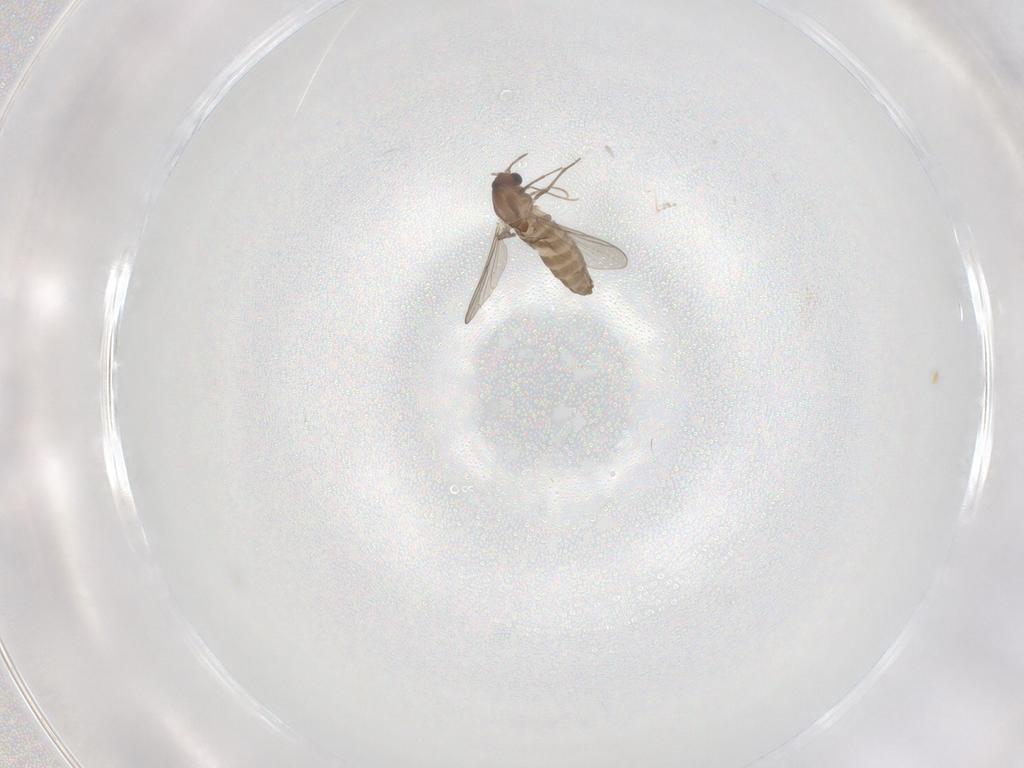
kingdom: Animalia
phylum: Arthropoda
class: Insecta
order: Diptera
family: Chironomidae
